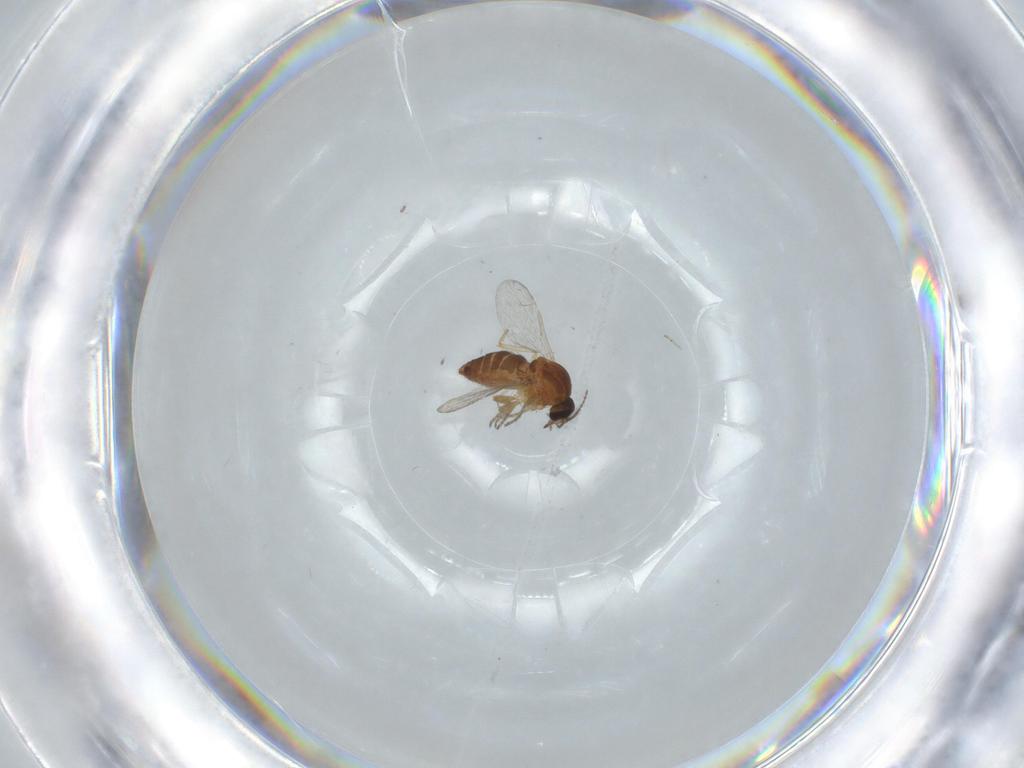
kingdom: Animalia
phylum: Arthropoda
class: Insecta
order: Diptera
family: Ceratopogonidae
